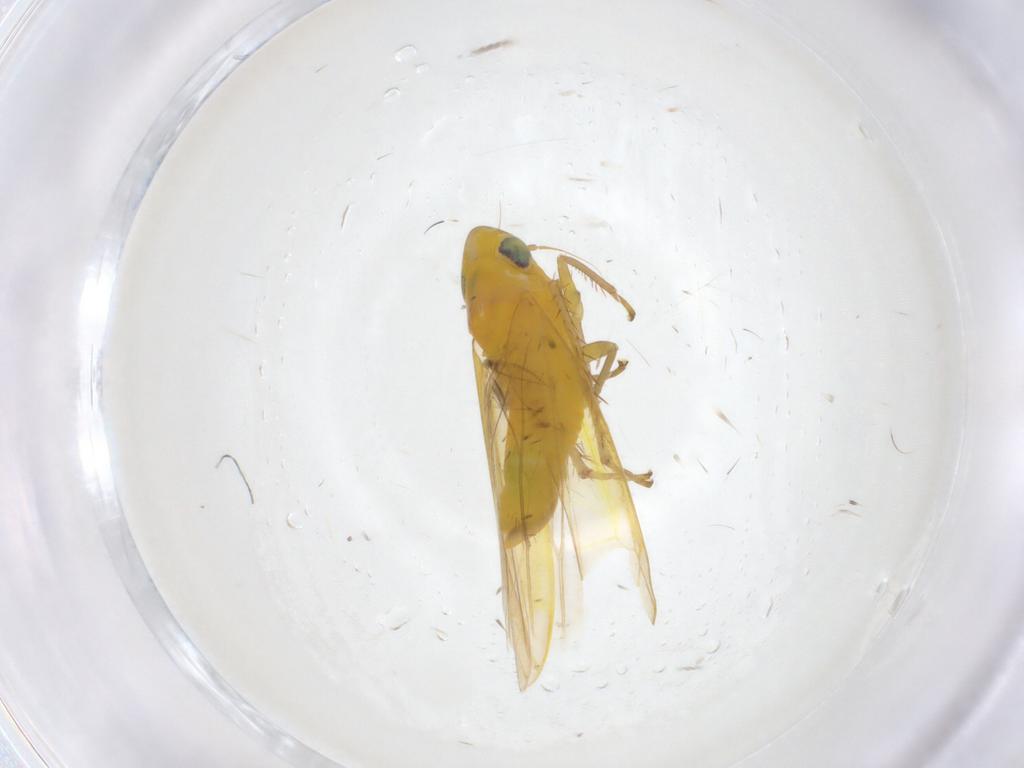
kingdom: Animalia
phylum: Arthropoda
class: Insecta
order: Hemiptera
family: Cicadellidae
